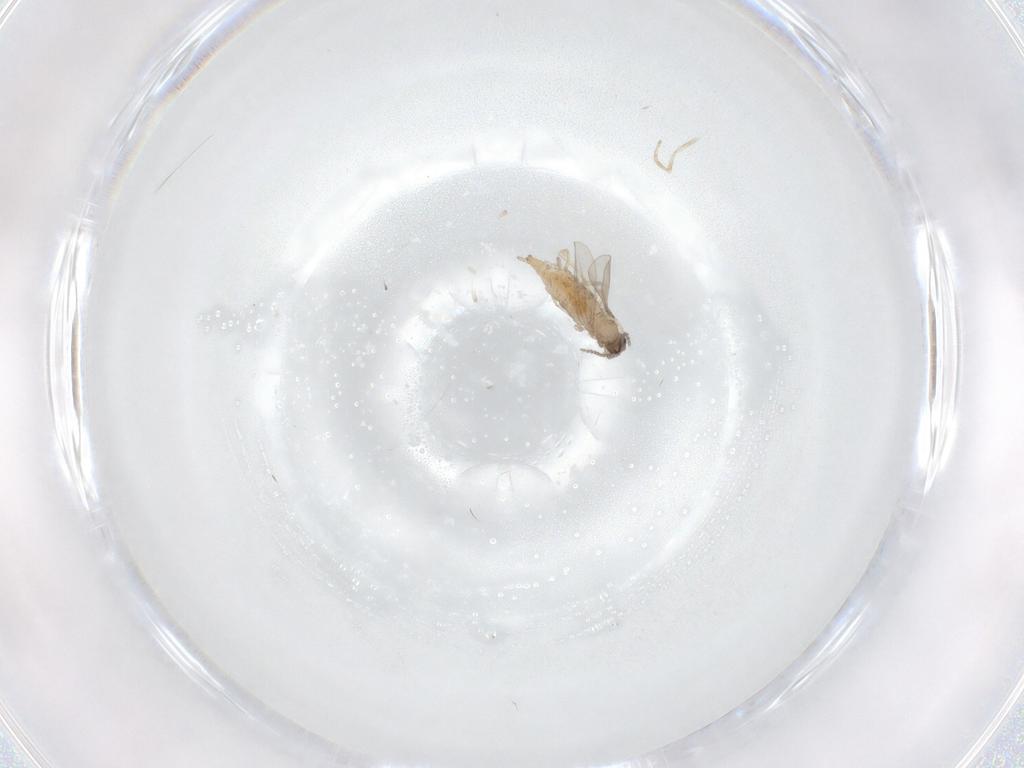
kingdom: Animalia
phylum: Arthropoda
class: Insecta
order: Diptera
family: Cecidomyiidae
